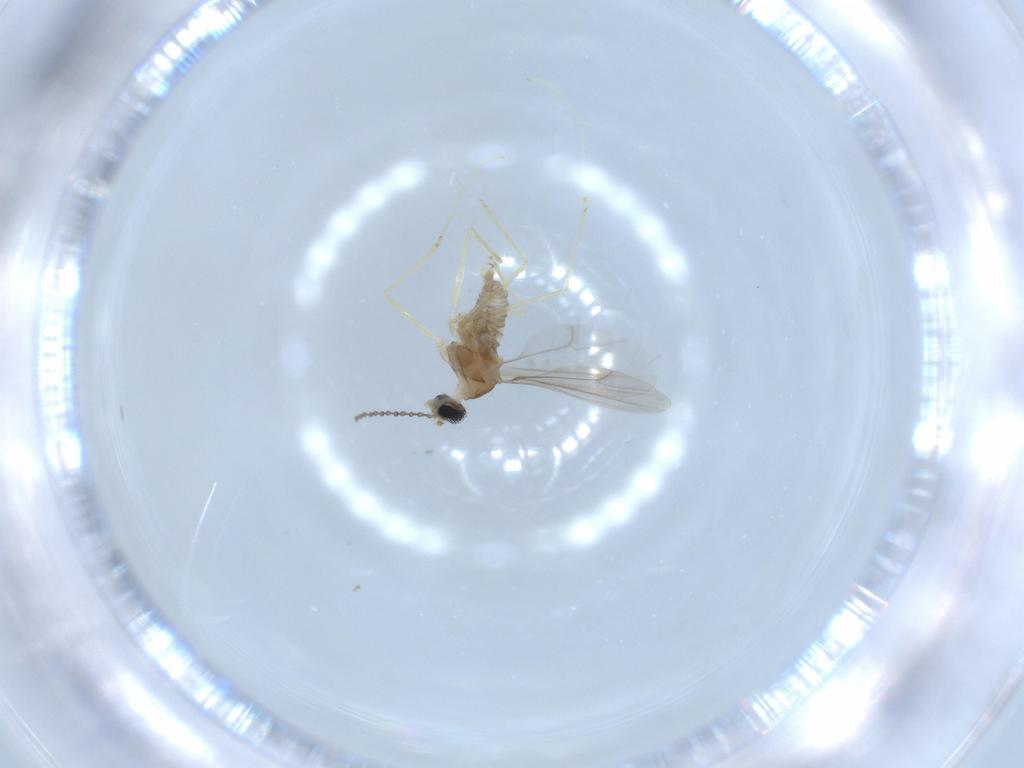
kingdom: Animalia
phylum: Arthropoda
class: Insecta
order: Diptera
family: Cecidomyiidae
